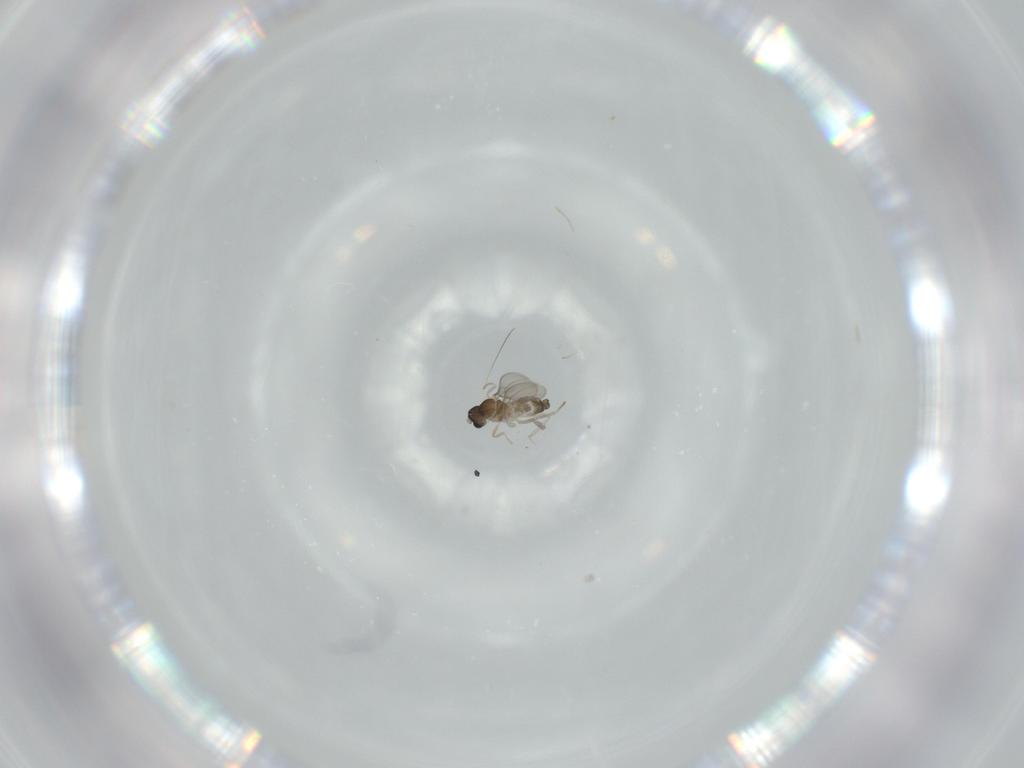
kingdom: Animalia
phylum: Arthropoda
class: Insecta
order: Diptera
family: Cecidomyiidae
